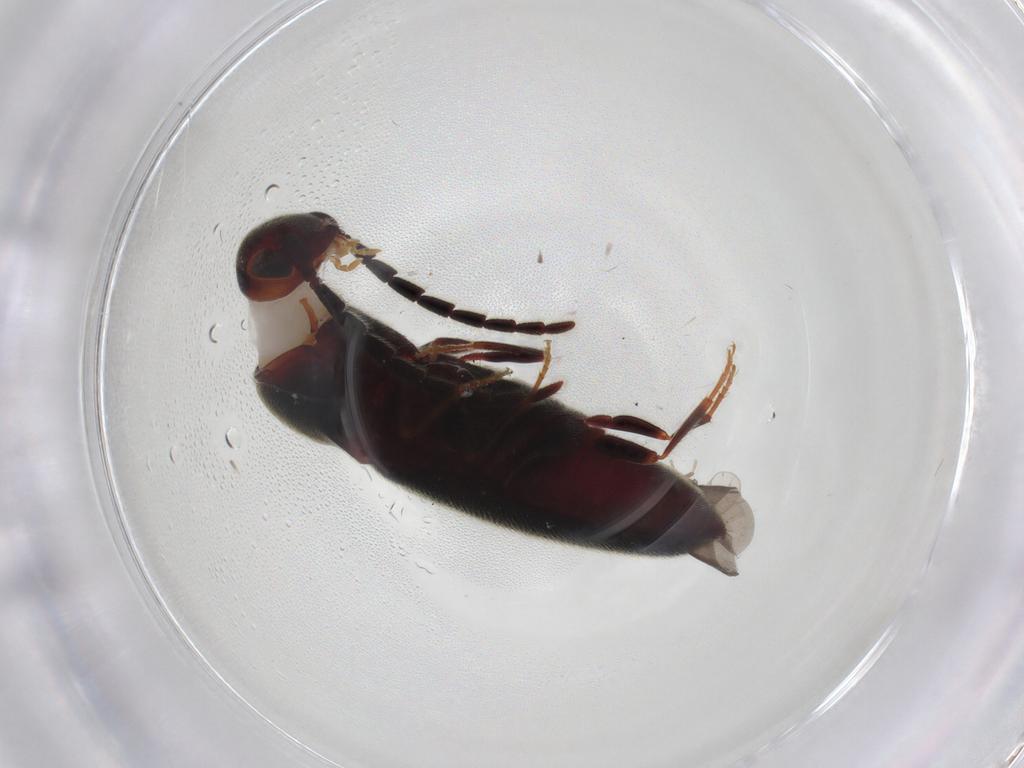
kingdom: Animalia
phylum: Arthropoda
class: Insecta
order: Coleoptera
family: Eucnemidae
